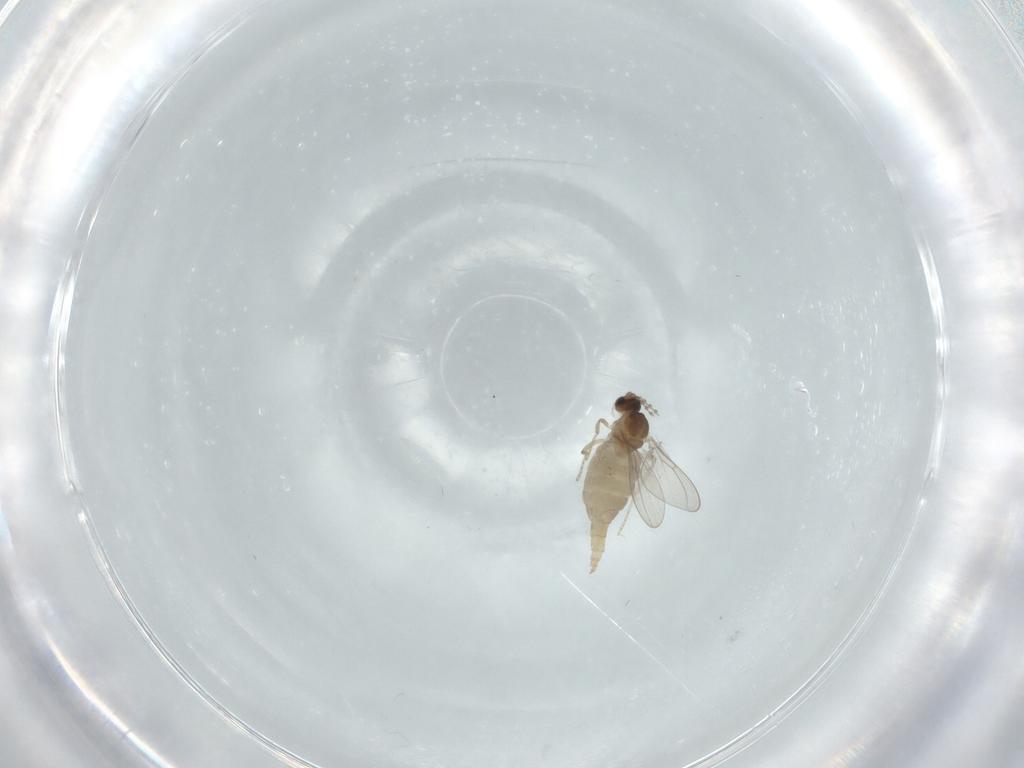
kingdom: Animalia
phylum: Arthropoda
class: Insecta
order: Diptera
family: Cecidomyiidae
